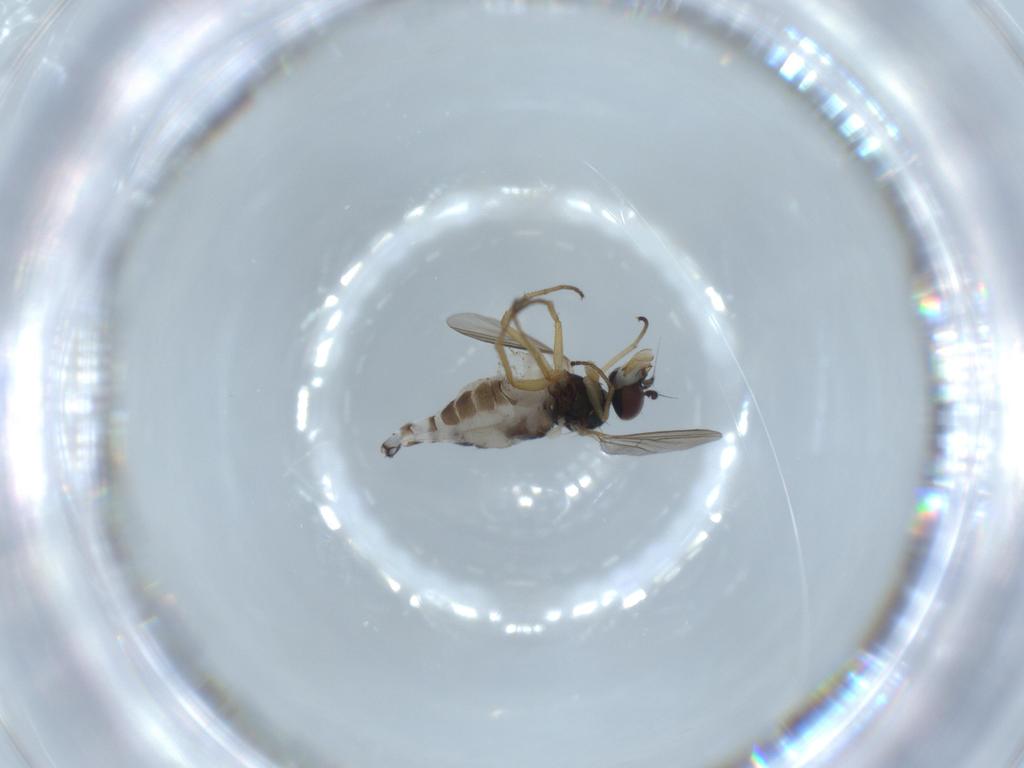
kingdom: Animalia
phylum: Arthropoda
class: Insecta
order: Diptera
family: Dolichopodidae
